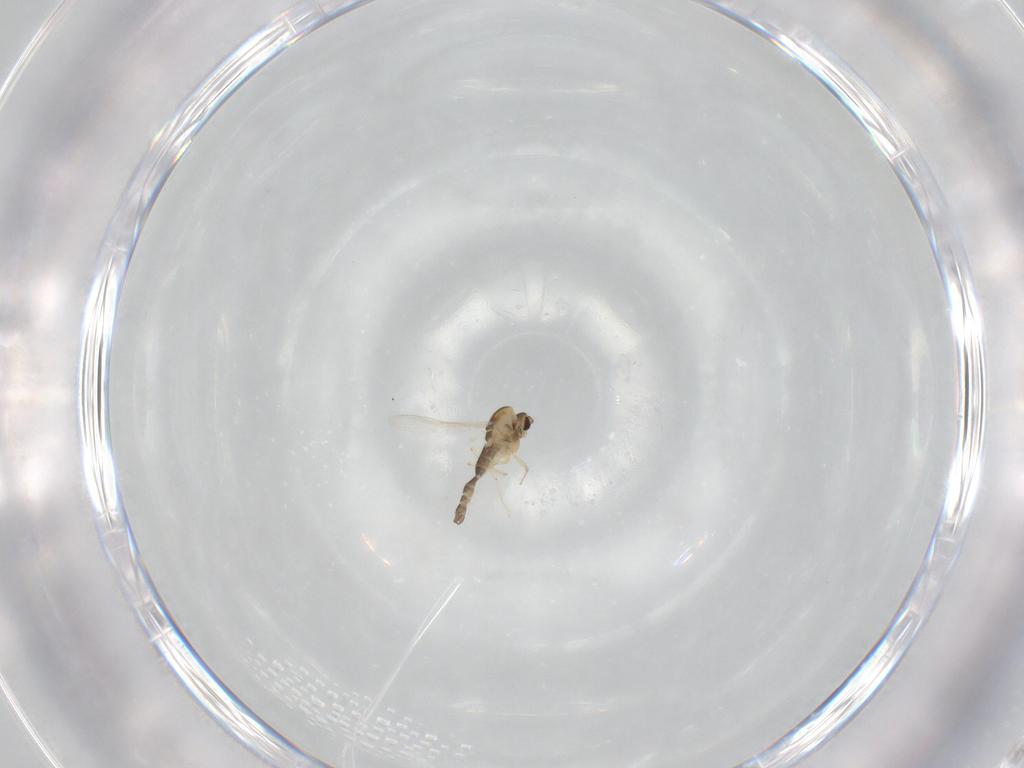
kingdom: Animalia
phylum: Arthropoda
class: Insecta
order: Diptera
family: Chironomidae
